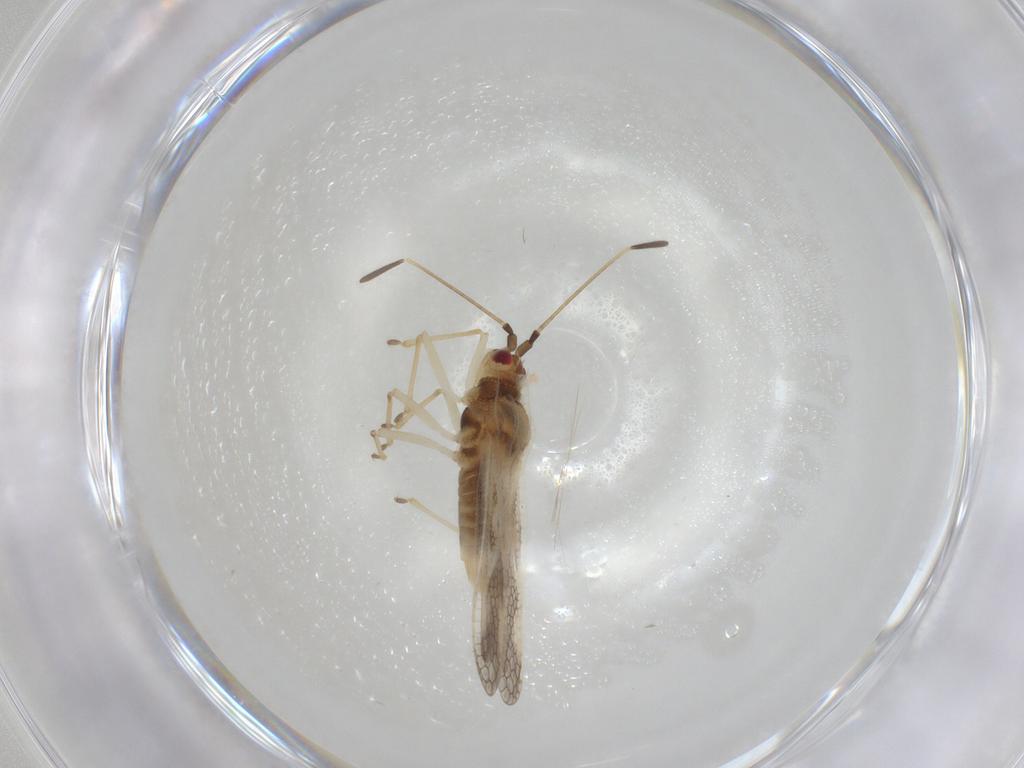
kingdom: Animalia
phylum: Arthropoda
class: Insecta
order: Hemiptera
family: Tingidae
